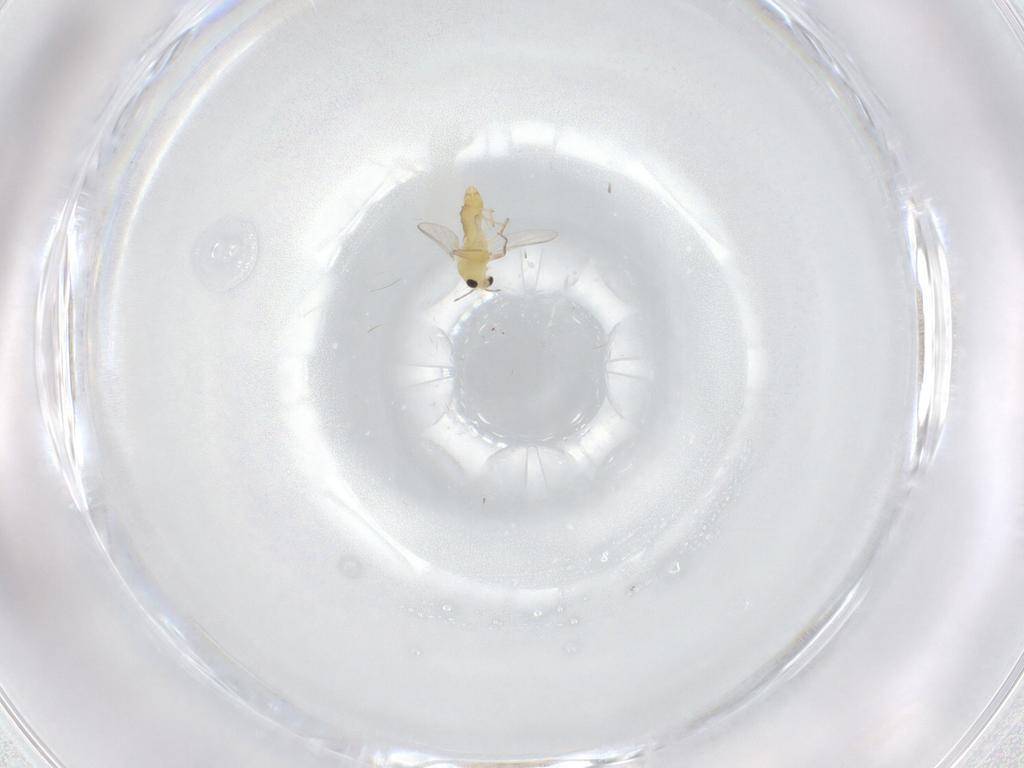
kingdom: Animalia
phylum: Arthropoda
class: Insecta
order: Diptera
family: Chironomidae
